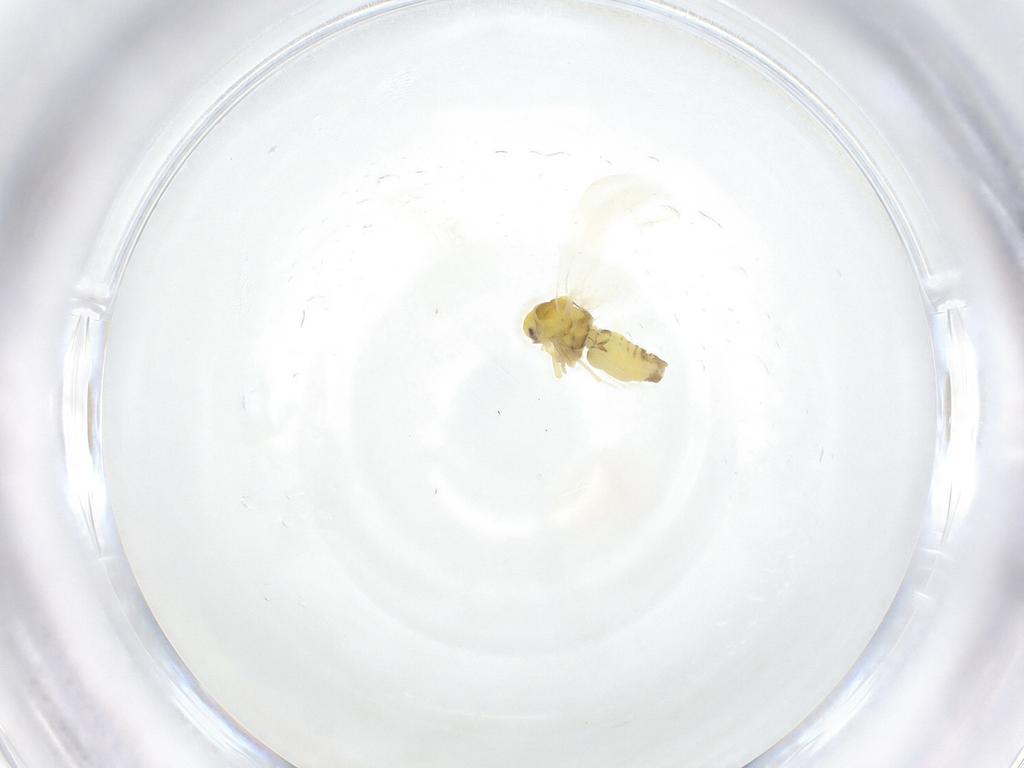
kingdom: Animalia
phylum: Arthropoda
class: Insecta
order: Hemiptera
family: Aleyrodidae
